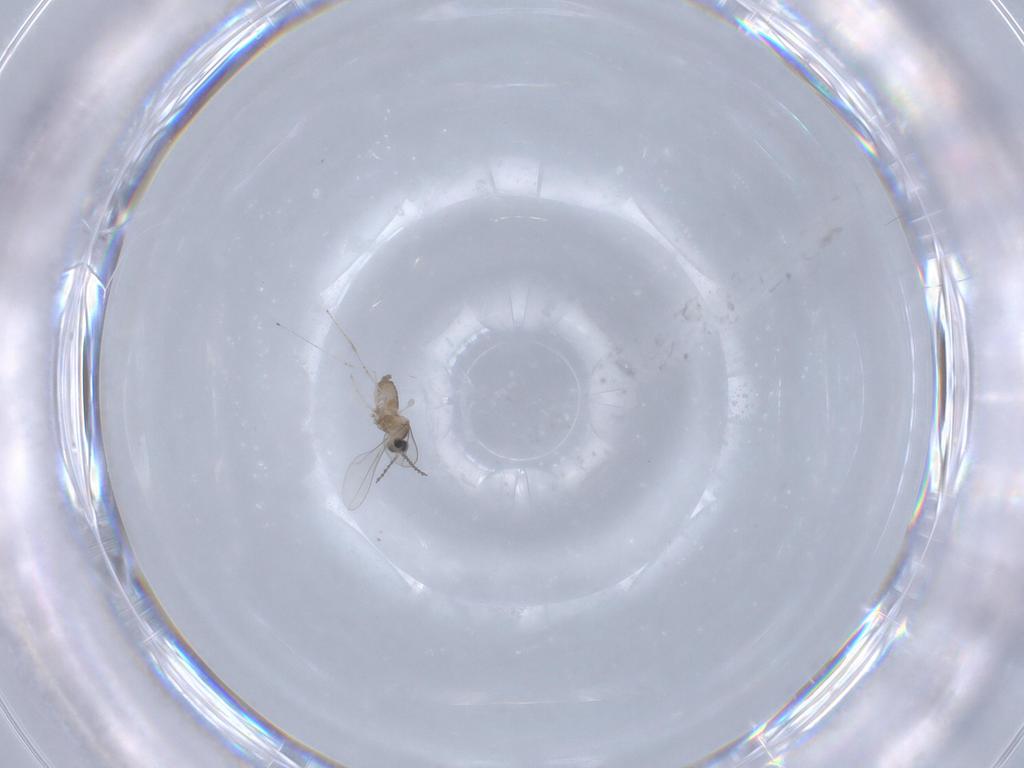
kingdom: Animalia
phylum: Arthropoda
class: Insecta
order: Diptera
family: Cecidomyiidae
